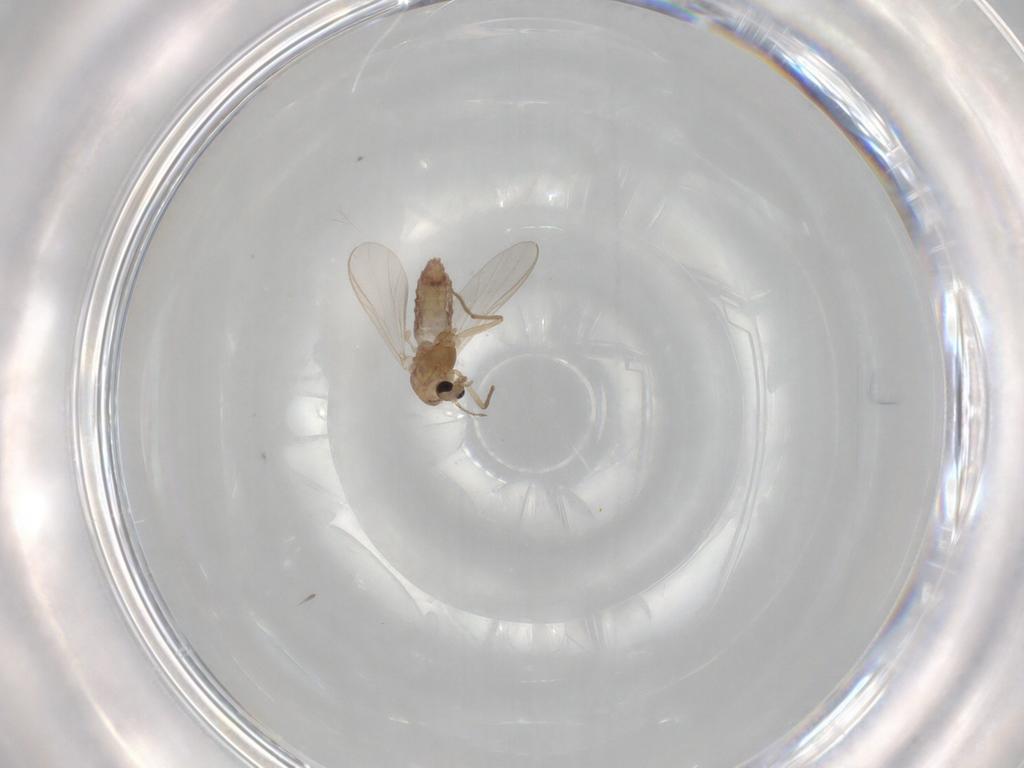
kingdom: Animalia
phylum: Arthropoda
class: Insecta
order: Diptera
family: Chironomidae
